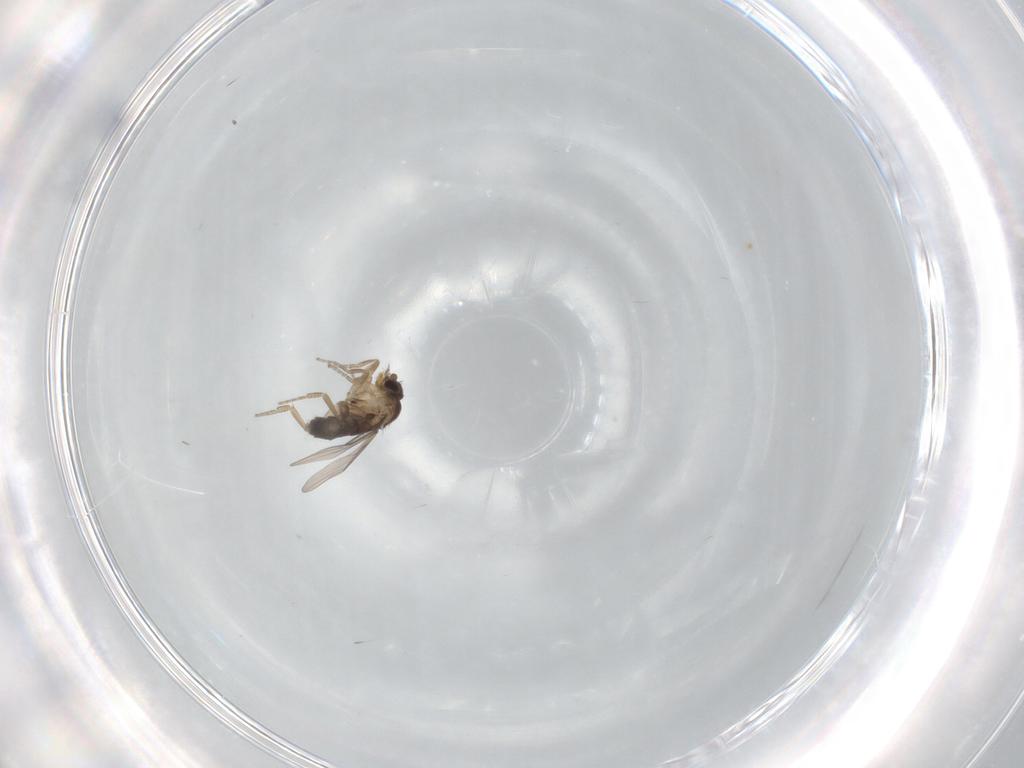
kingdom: Animalia
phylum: Arthropoda
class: Insecta
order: Diptera
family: Phoridae
